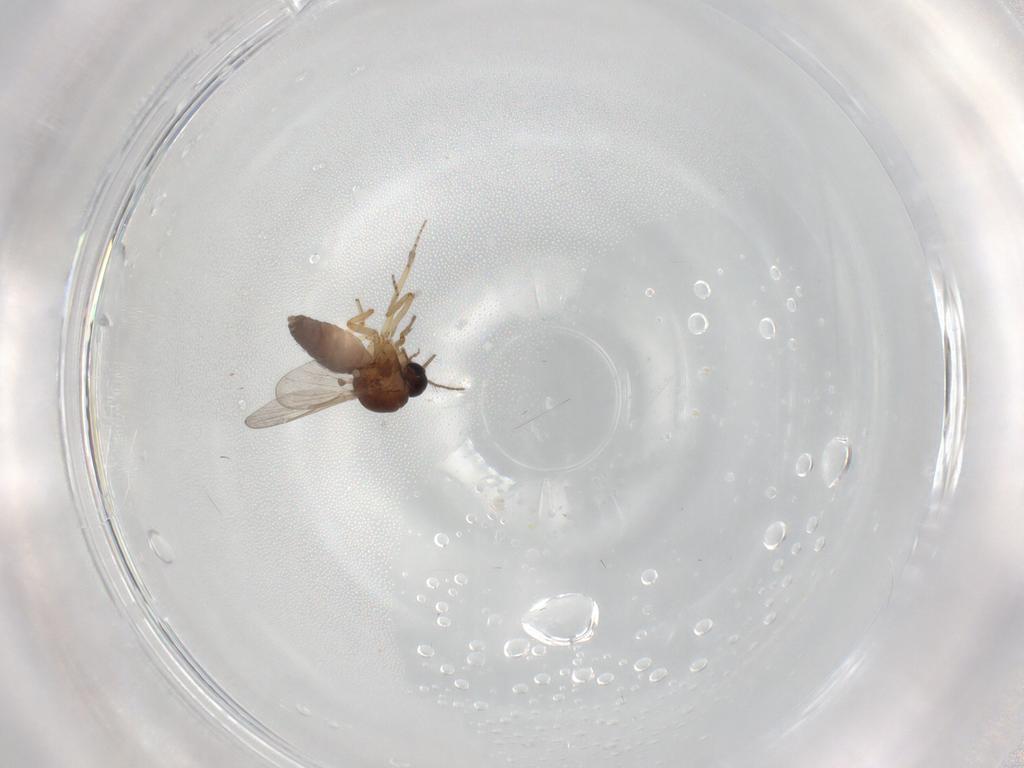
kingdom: Animalia
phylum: Arthropoda
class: Insecta
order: Diptera
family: Ceratopogonidae
